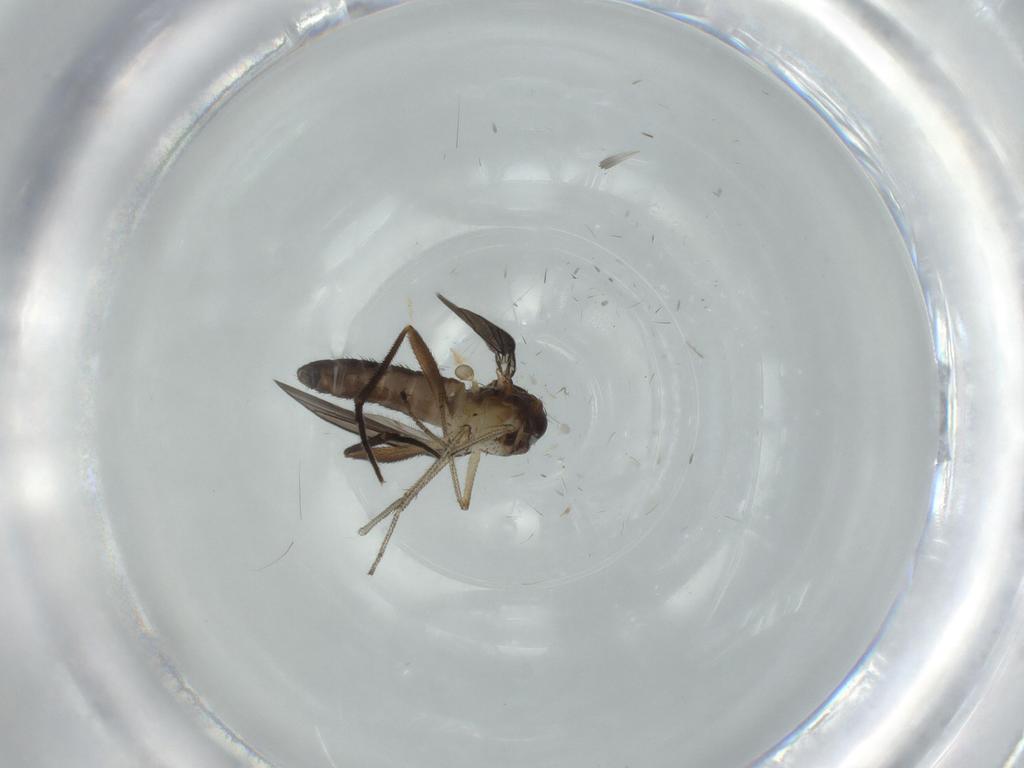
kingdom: Animalia
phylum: Arthropoda
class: Insecta
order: Diptera
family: Dolichopodidae
